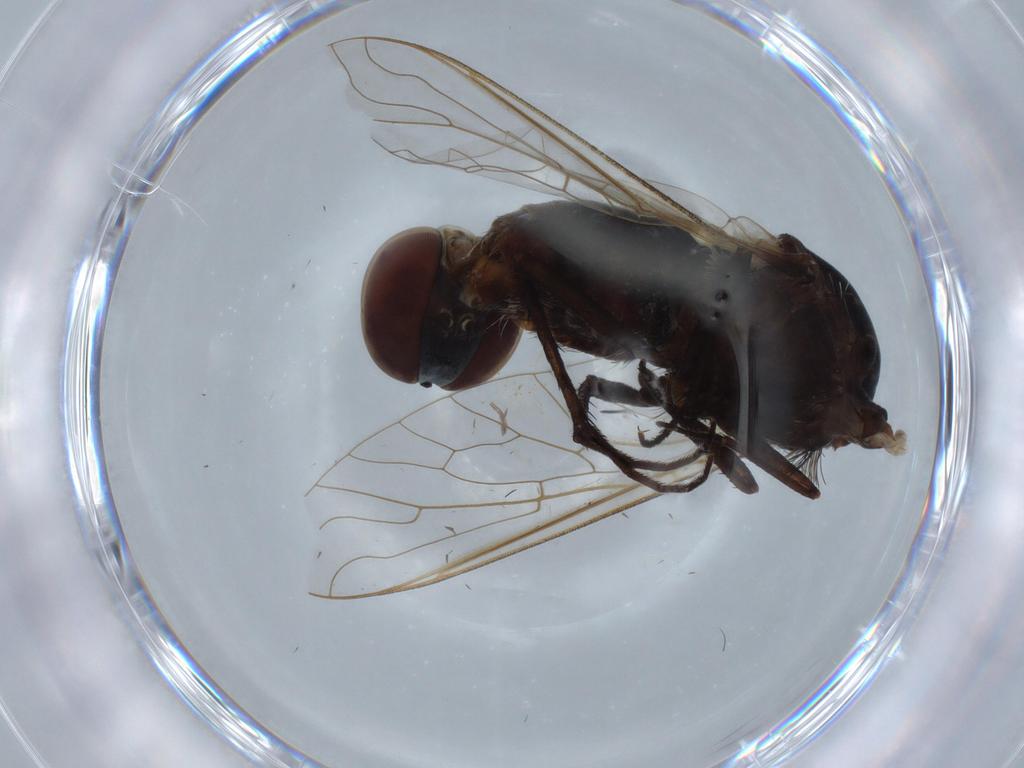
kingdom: Animalia
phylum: Arthropoda
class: Insecta
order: Diptera
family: Bombyliidae
